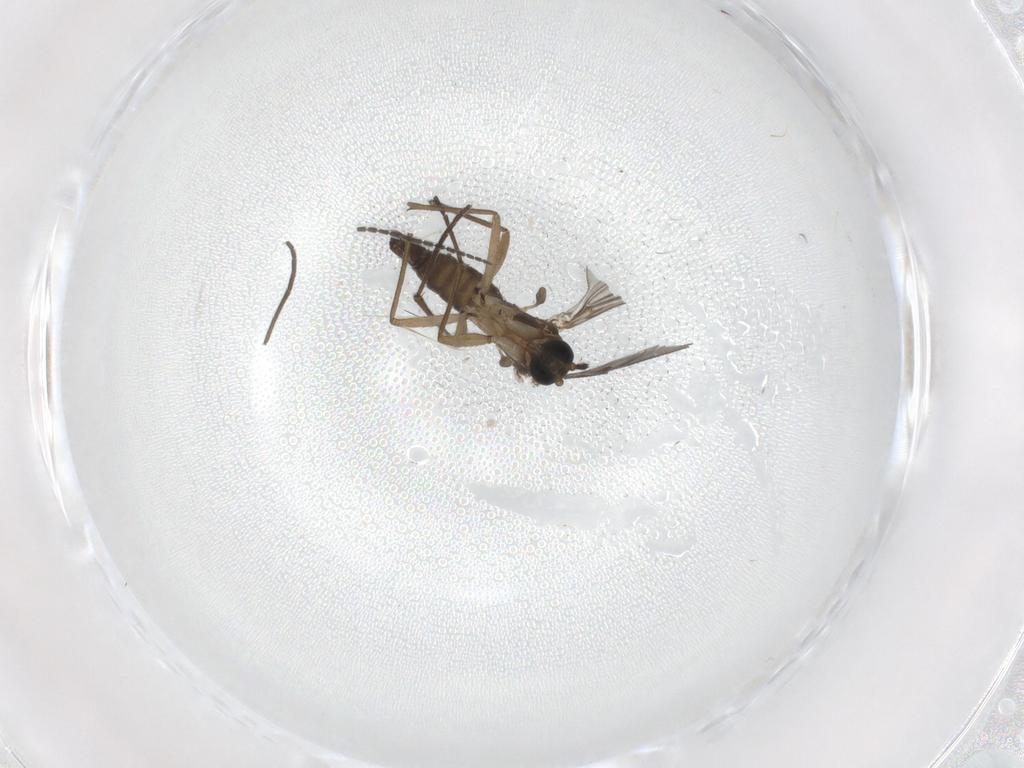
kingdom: Animalia
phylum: Arthropoda
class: Insecta
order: Diptera
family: Sciaridae
